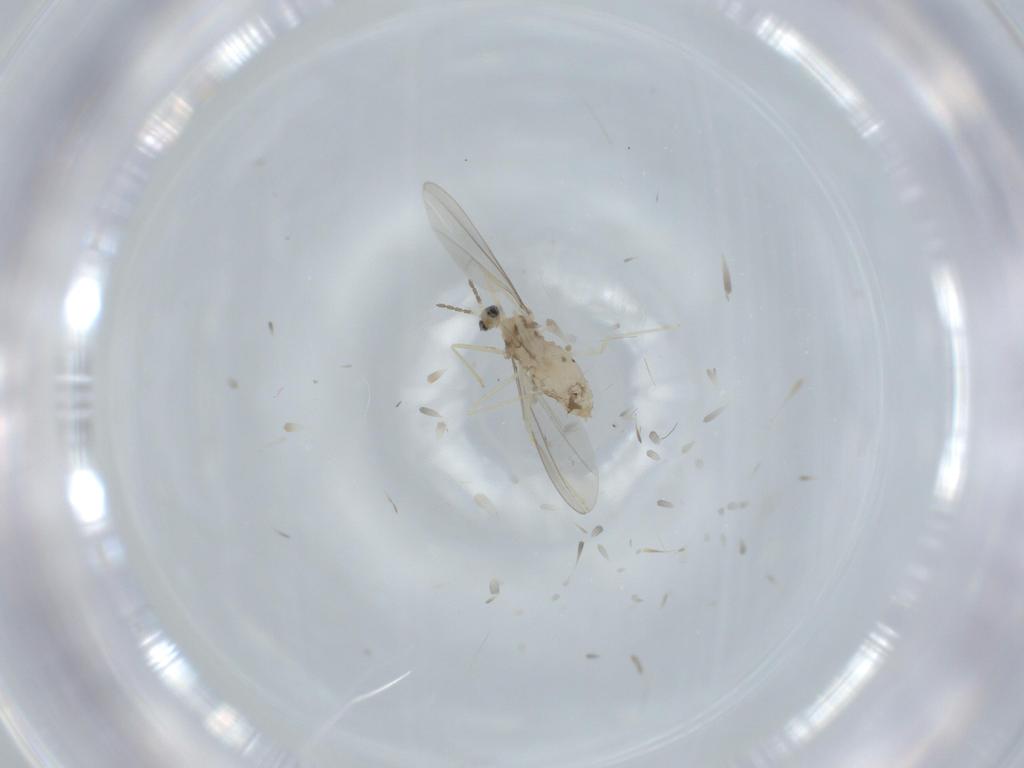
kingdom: Animalia
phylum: Arthropoda
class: Insecta
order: Diptera
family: Cecidomyiidae
